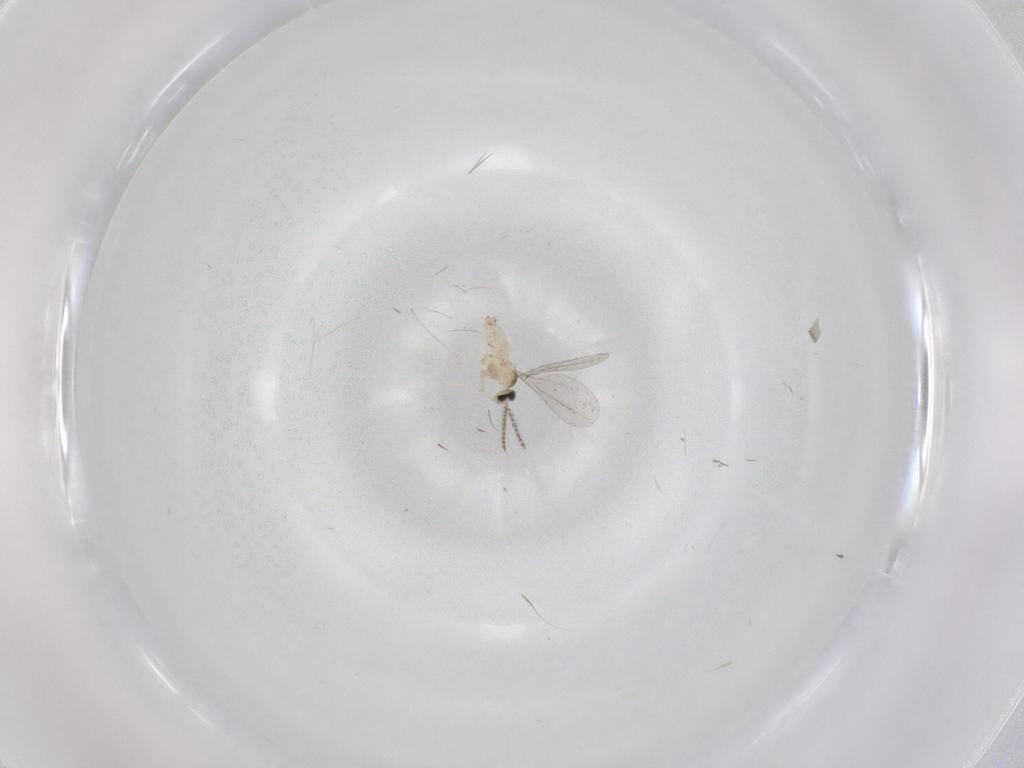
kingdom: Animalia
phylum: Arthropoda
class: Insecta
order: Diptera
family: Cecidomyiidae
